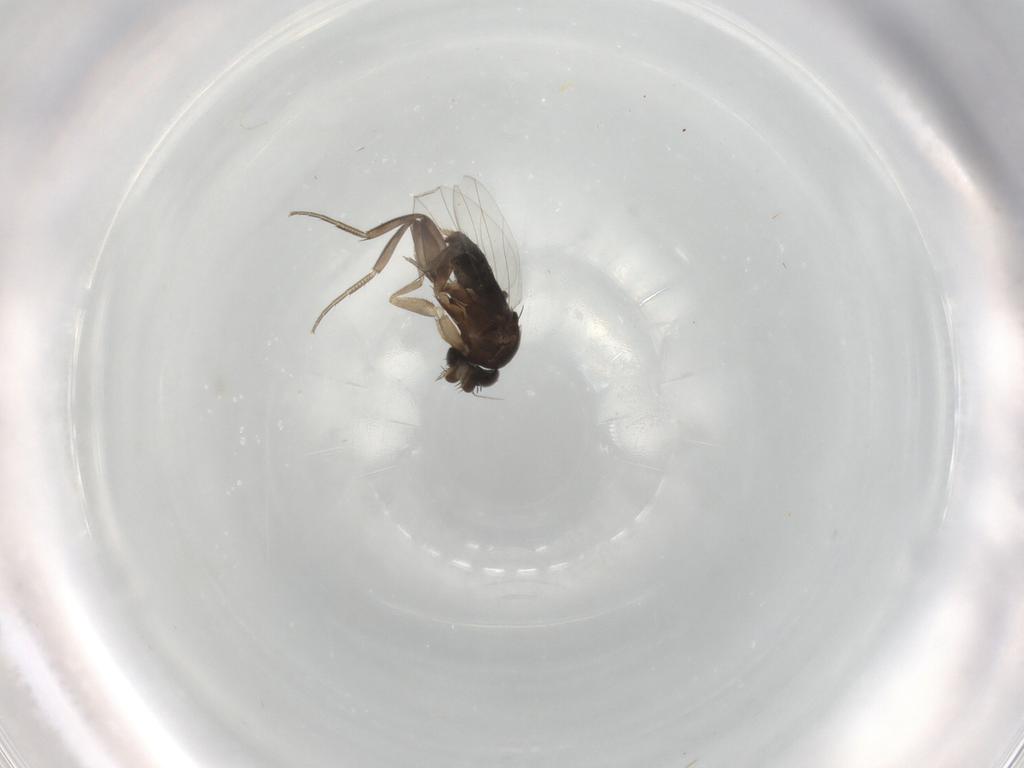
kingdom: Animalia
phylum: Arthropoda
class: Insecta
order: Diptera
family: Phoridae
